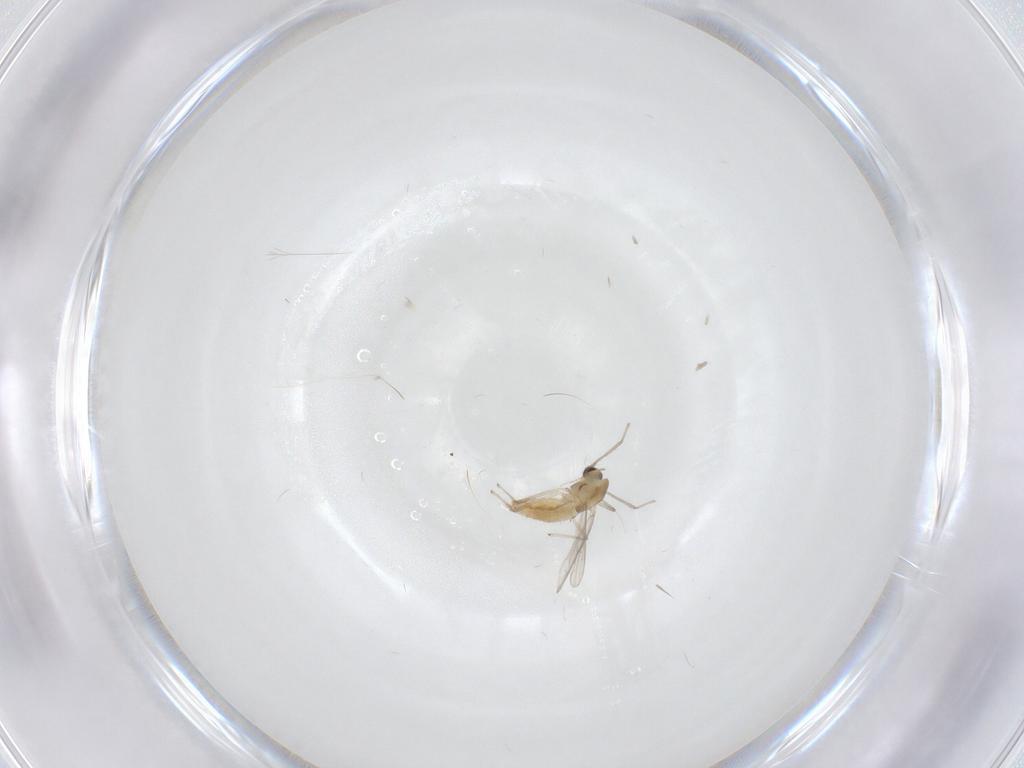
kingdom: Animalia
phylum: Arthropoda
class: Insecta
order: Diptera
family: Chironomidae
